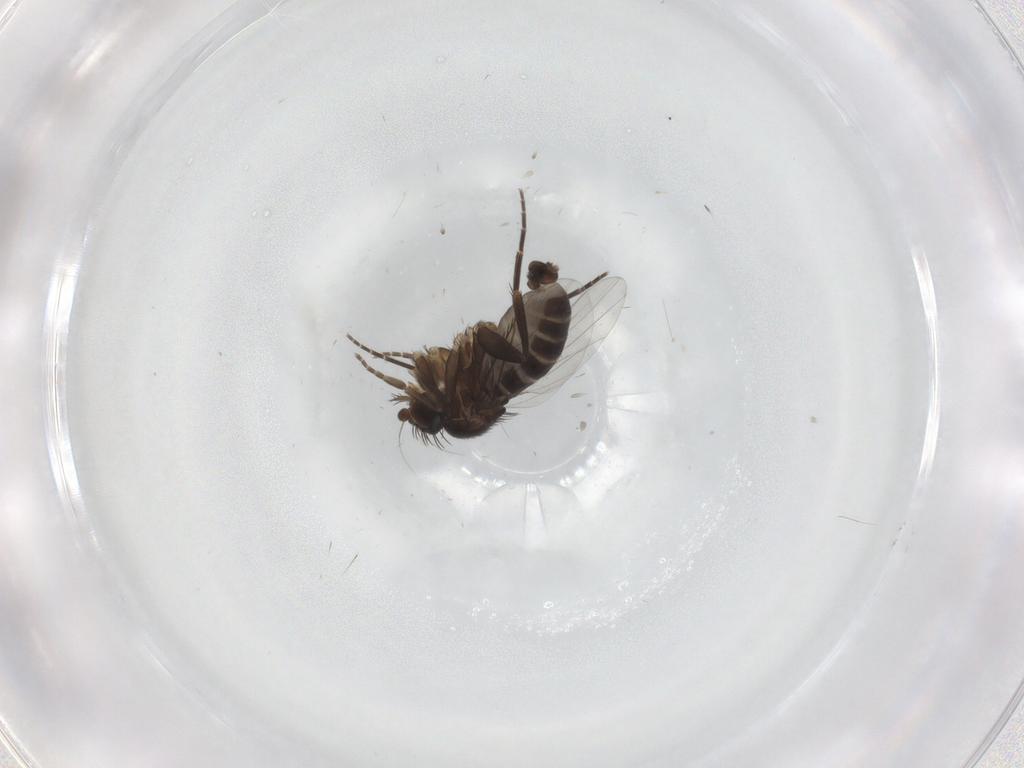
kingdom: Animalia
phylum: Arthropoda
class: Insecta
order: Diptera
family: Phoridae
